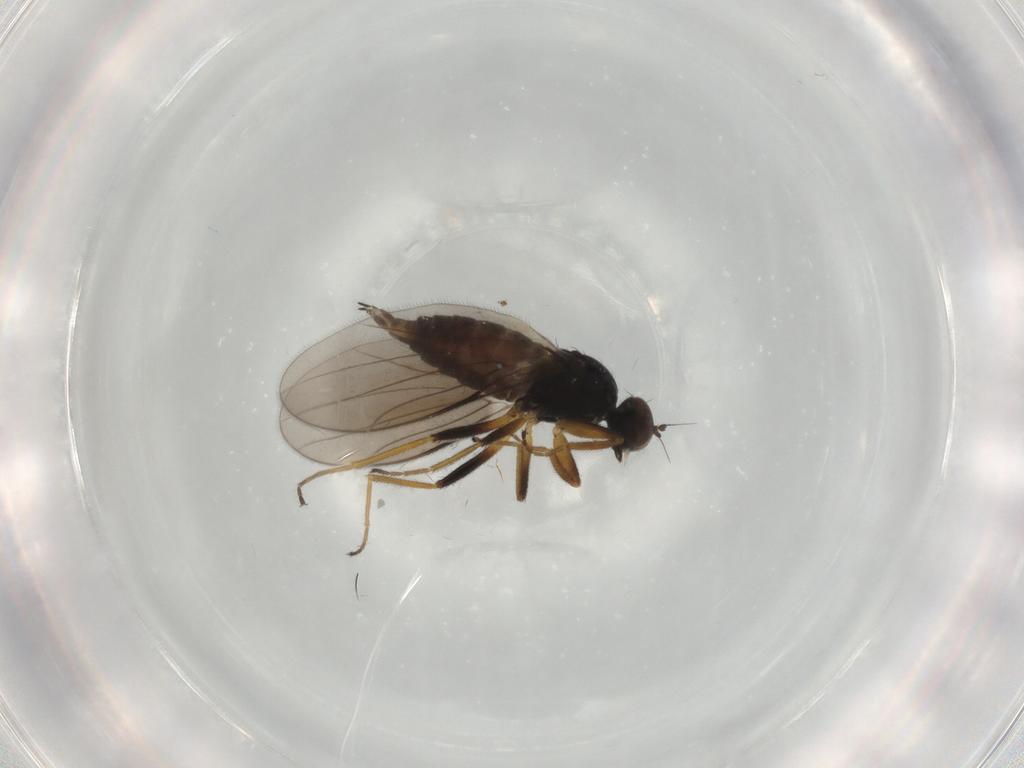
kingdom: Animalia
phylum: Arthropoda
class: Insecta
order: Diptera
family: Hybotidae
